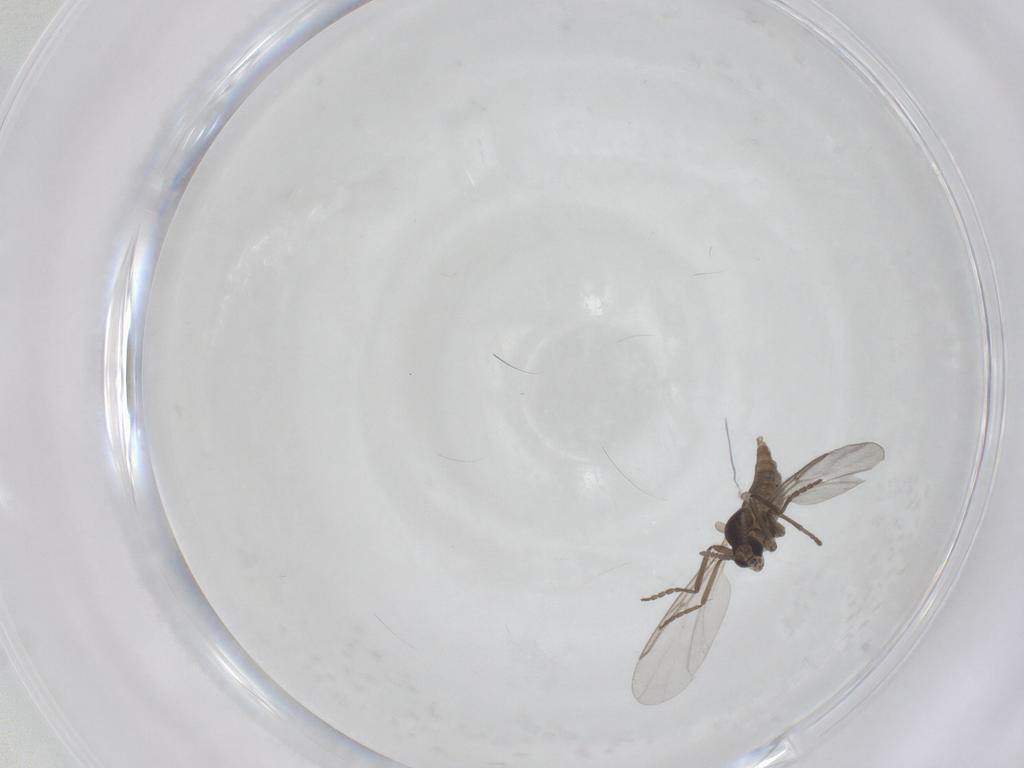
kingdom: Animalia
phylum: Arthropoda
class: Insecta
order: Diptera
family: Cecidomyiidae
